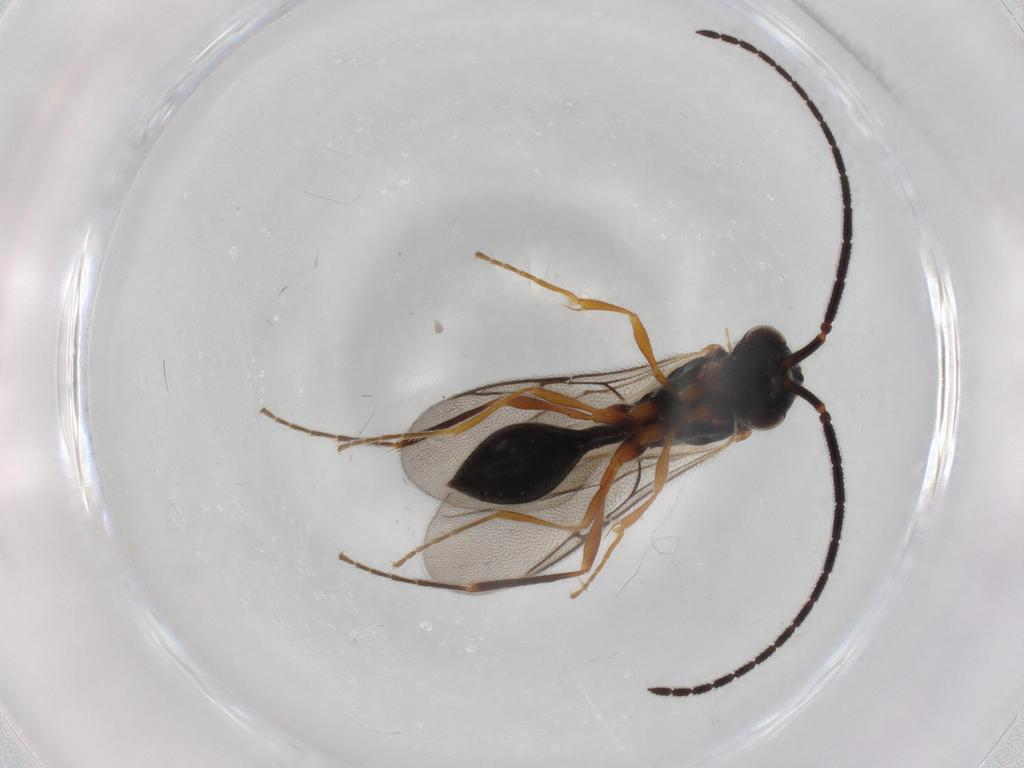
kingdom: Animalia
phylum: Arthropoda
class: Insecta
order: Hymenoptera
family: Diapriidae
